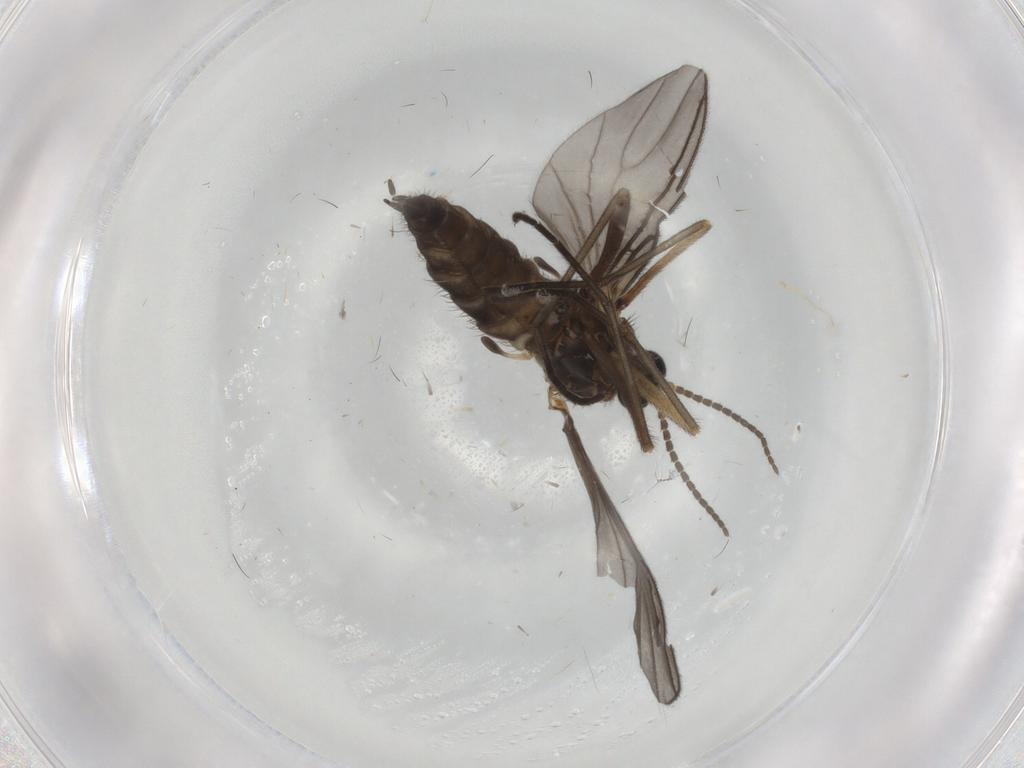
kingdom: Animalia
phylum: Arthropoda
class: Insecta
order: Diptera
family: Sciaridae
